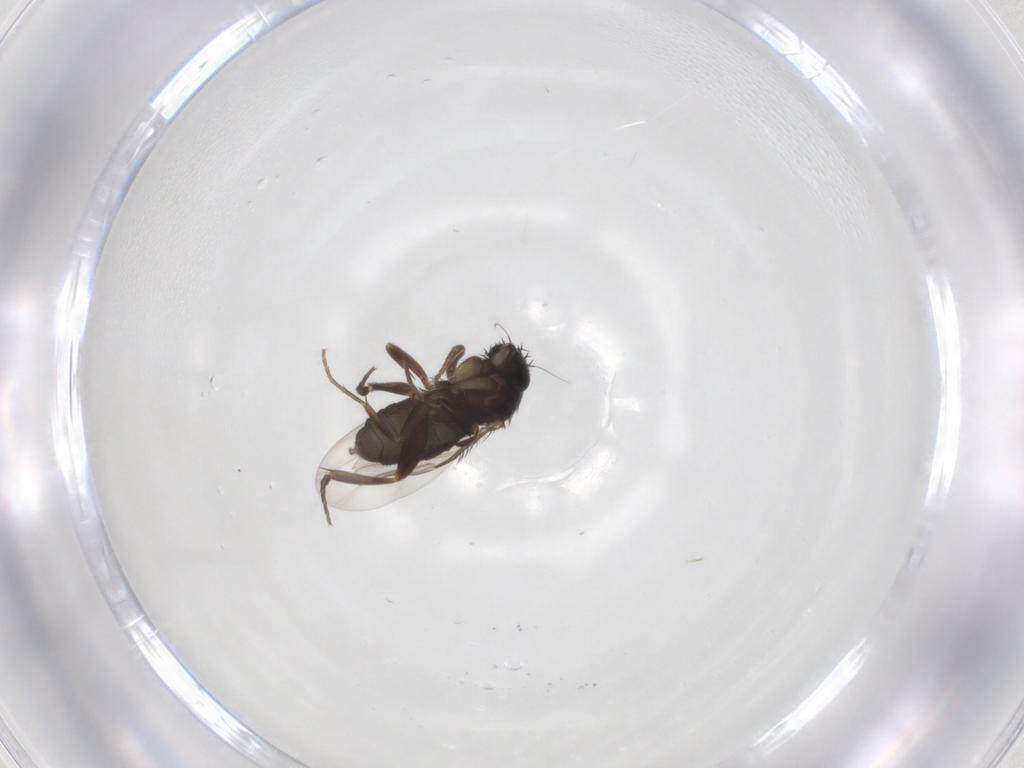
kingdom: Animalia
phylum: Arthropoda
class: Insecta
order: Diptera
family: Phoridae
